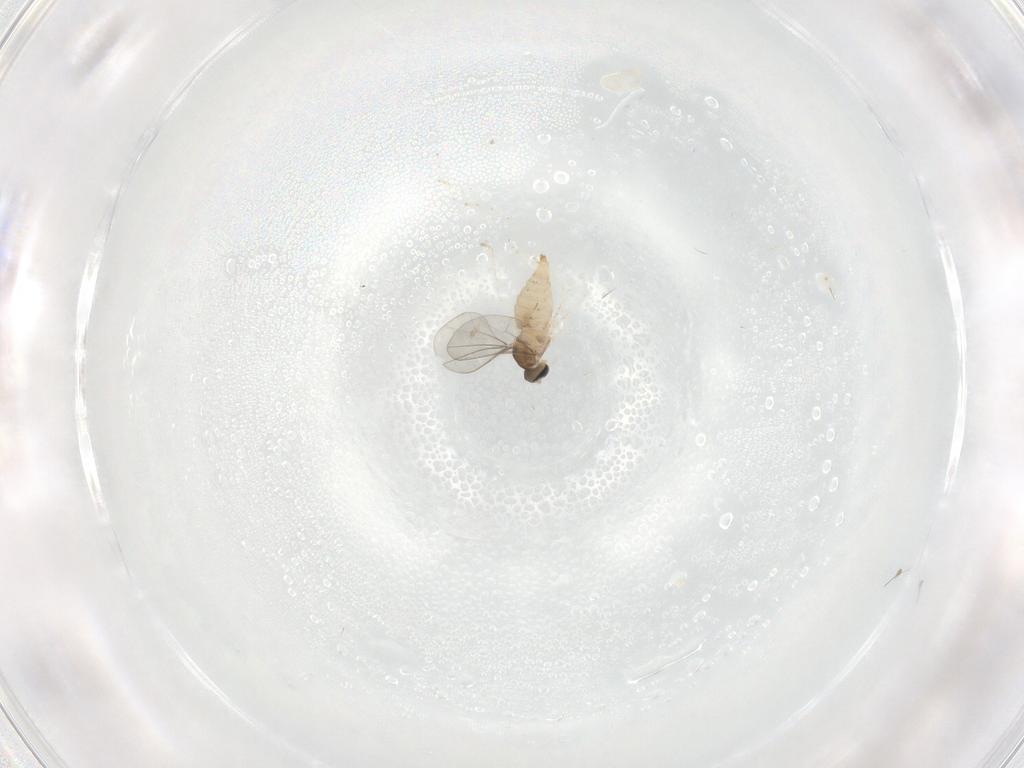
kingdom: Animalia
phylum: Arthropoda
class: Insecta
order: Diptera
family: Cecidomyiidae
